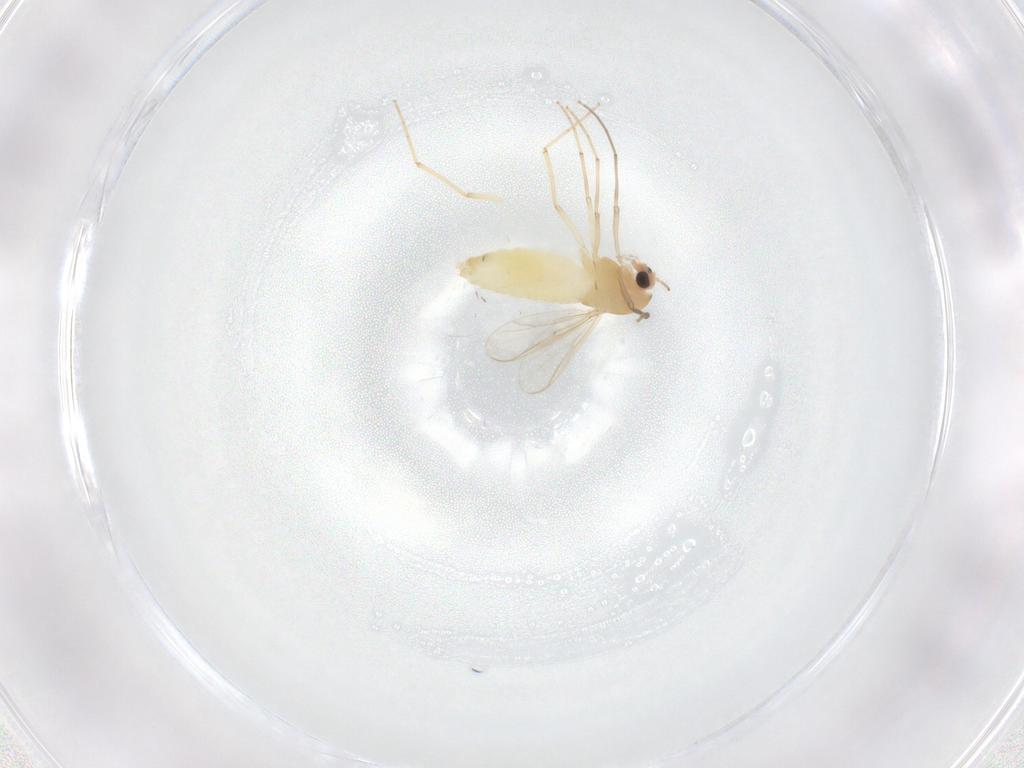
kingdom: Animalia
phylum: Arthropoda
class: Insecta
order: Diptera
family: Chironomidae
